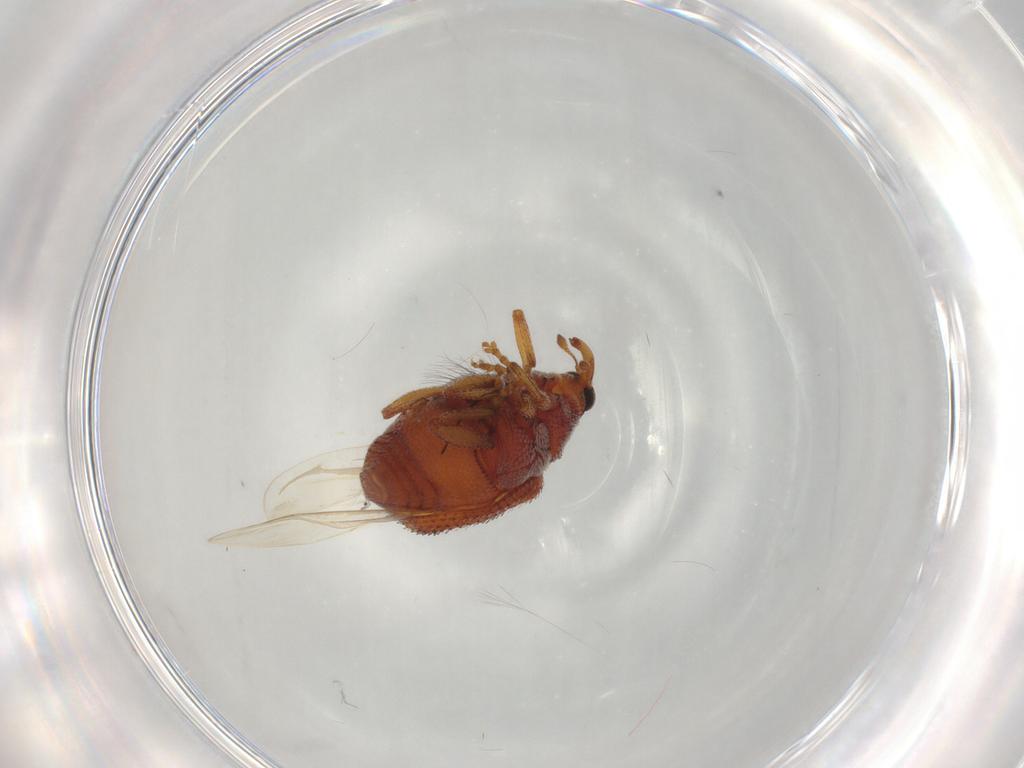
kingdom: Animalia
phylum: Arthropoda
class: Insecta
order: Coleoptera
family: Curculionidae
